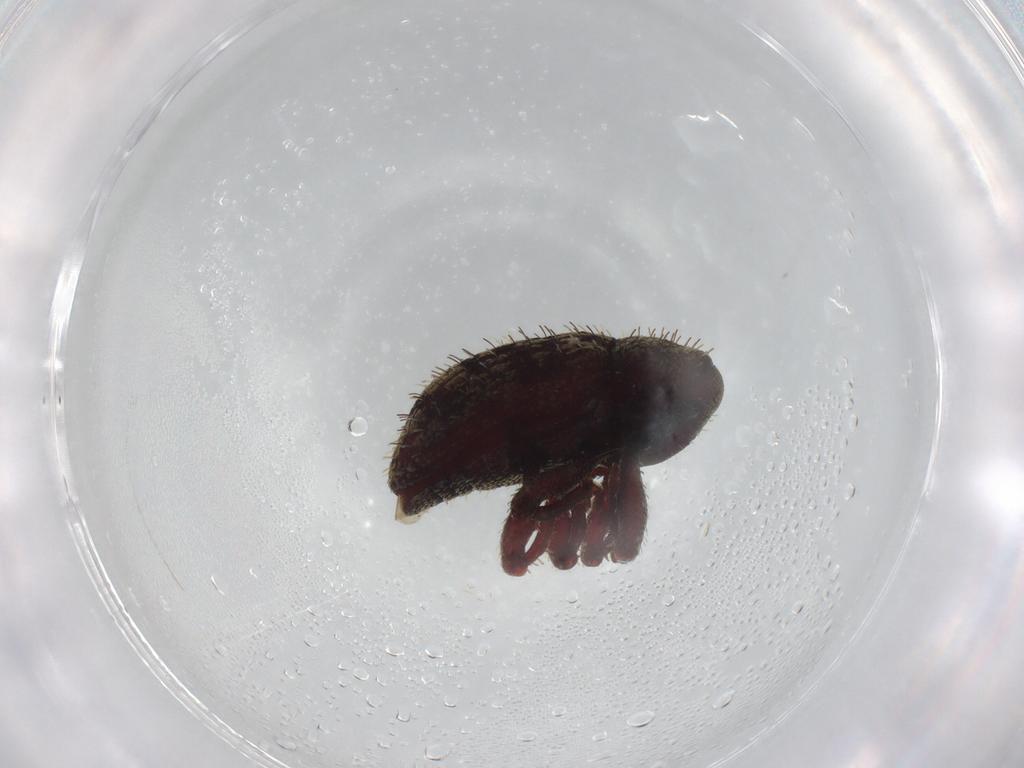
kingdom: Animalia
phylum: Arthropoda
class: Insecta
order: Coleoptera
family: Curculionidae
